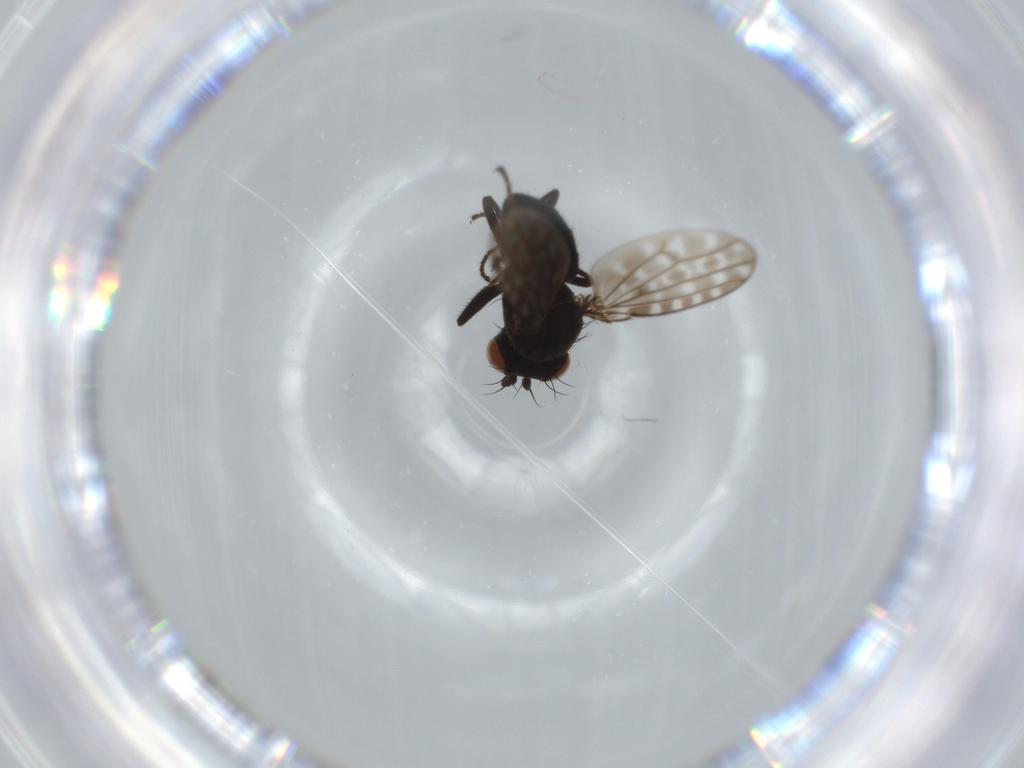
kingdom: Animalia
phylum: Arthropoda
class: Insecta
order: Diptera
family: Ephydridae
